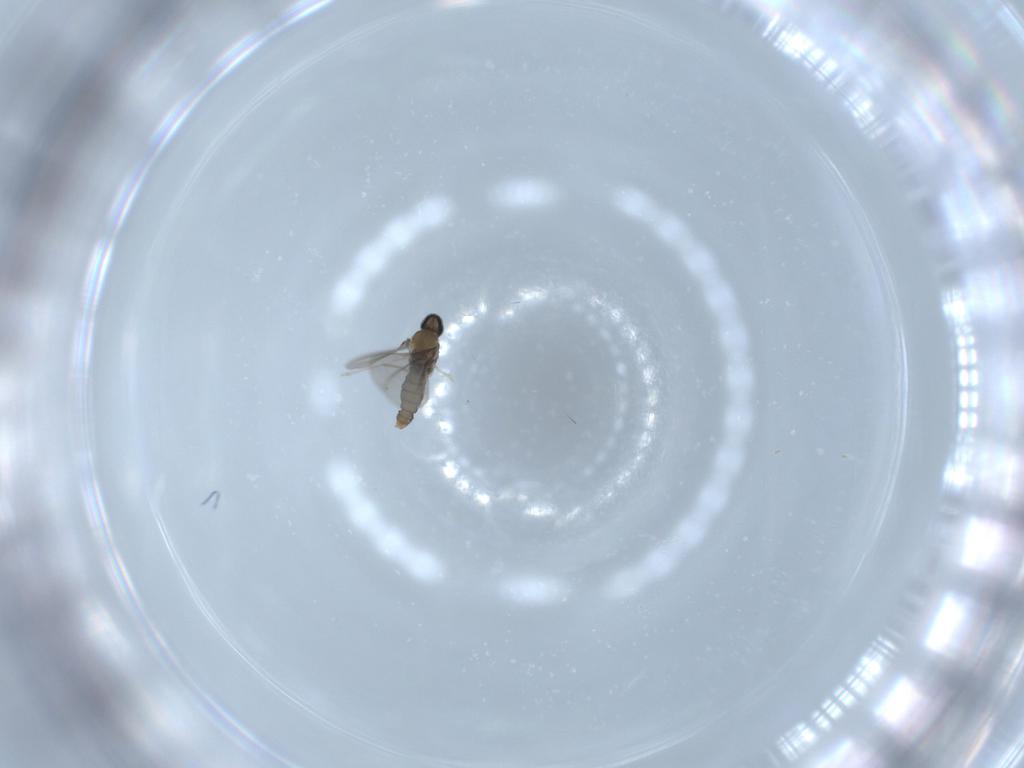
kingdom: Animalia
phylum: Arthropoda
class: Insecta
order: Diptera
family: Cecidomyiidae
